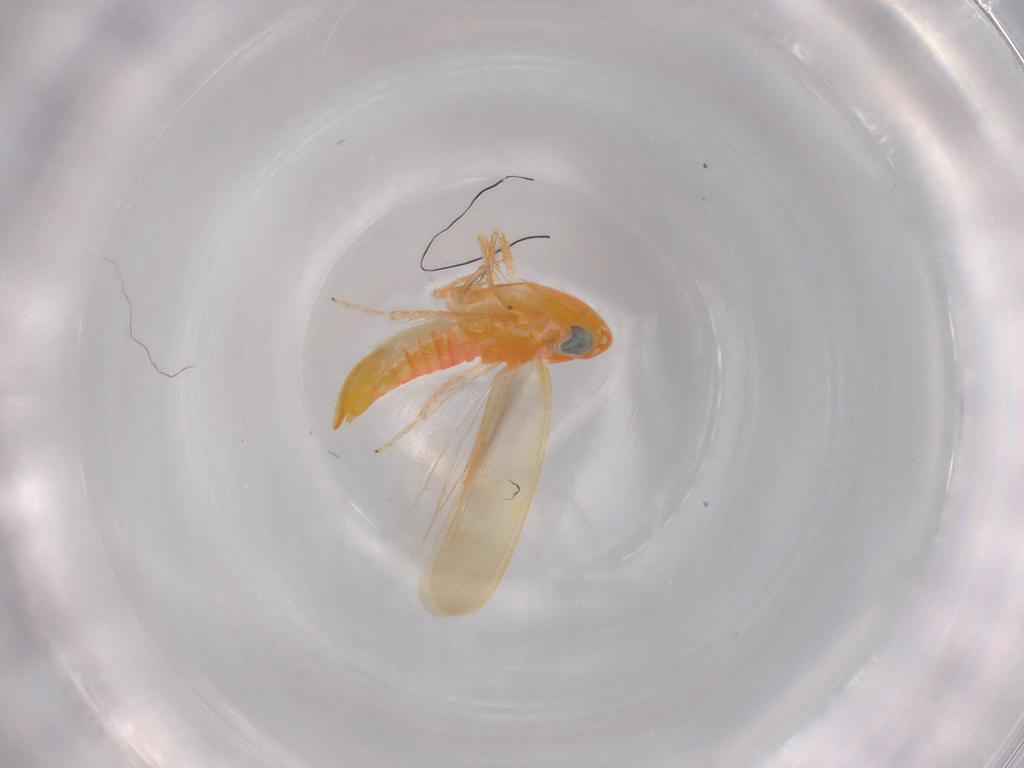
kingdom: Animalia
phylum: Arthropoda
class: Insecta
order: Hemiptera
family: Cicadellidae
